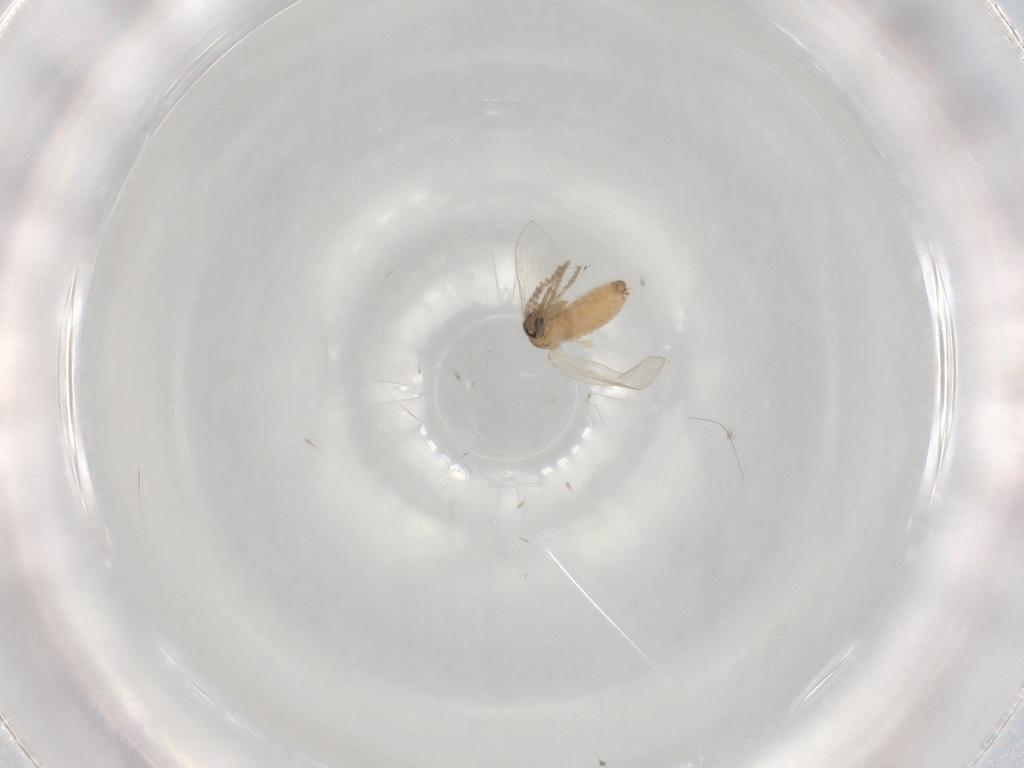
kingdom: Animalia
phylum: Arthropoda
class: Insecta
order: Diptera
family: Psychodidae
